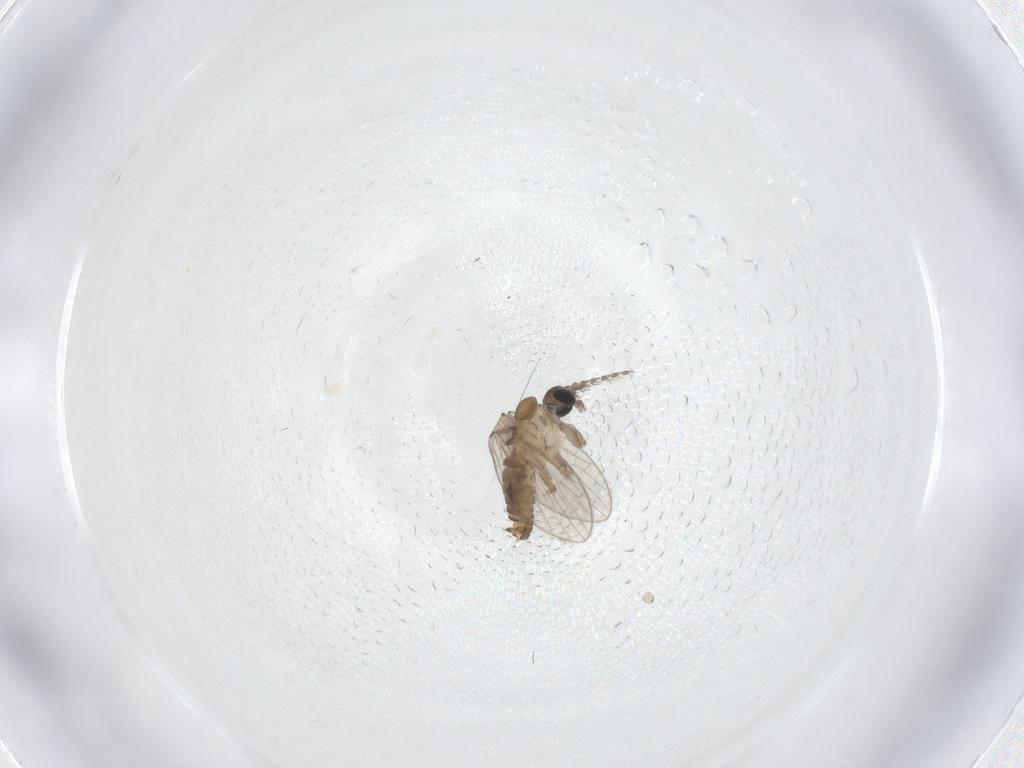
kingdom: Animalia
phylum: Arthropoda
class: Insecta
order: Diptera
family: Psychodidae
